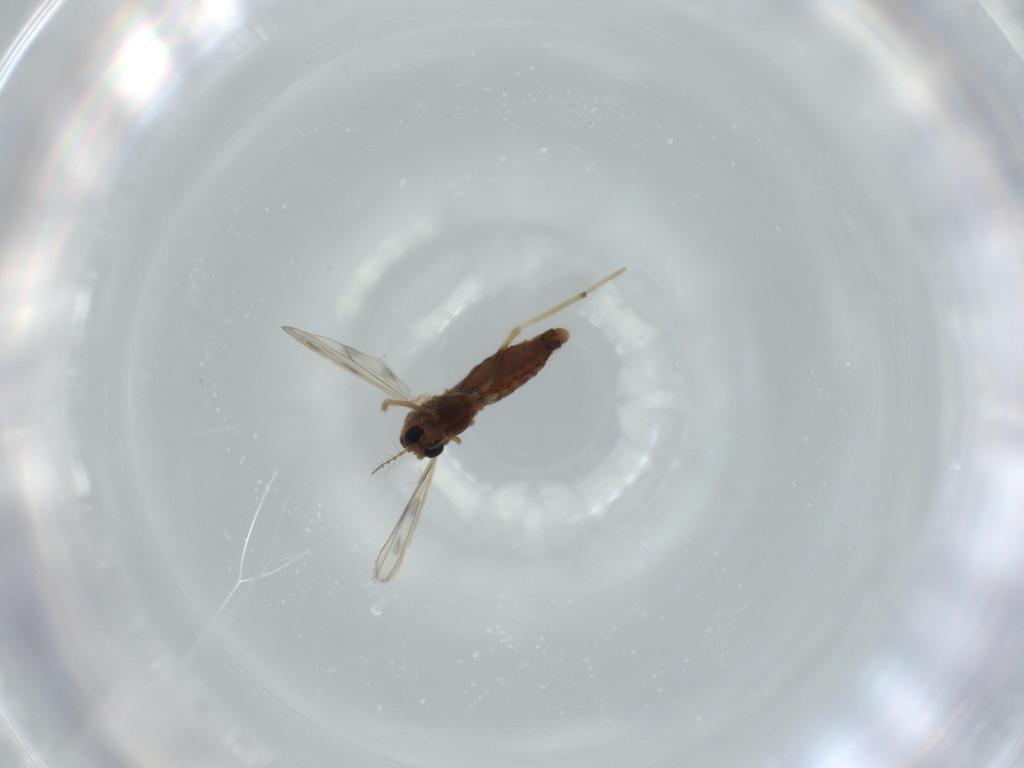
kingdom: Animalia
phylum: Arthropoda
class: Insecta
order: Diptera
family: Chironomidae
